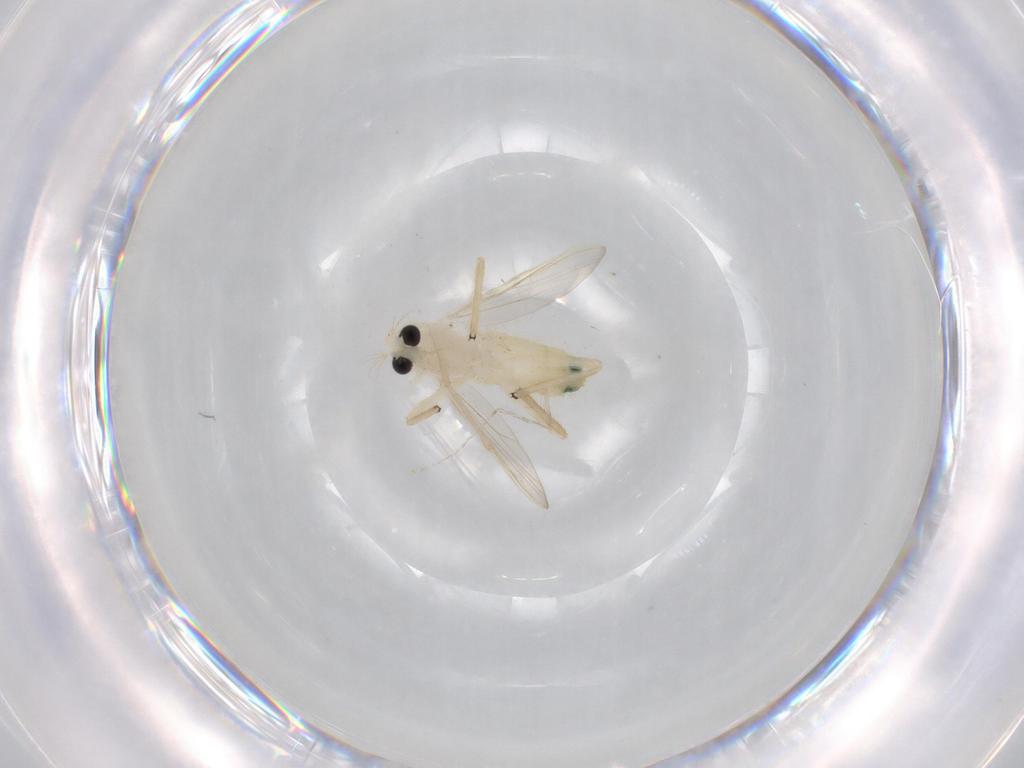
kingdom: Animalia
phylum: Arthropoda
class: Insecta
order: Diptera
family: Chironomidae
